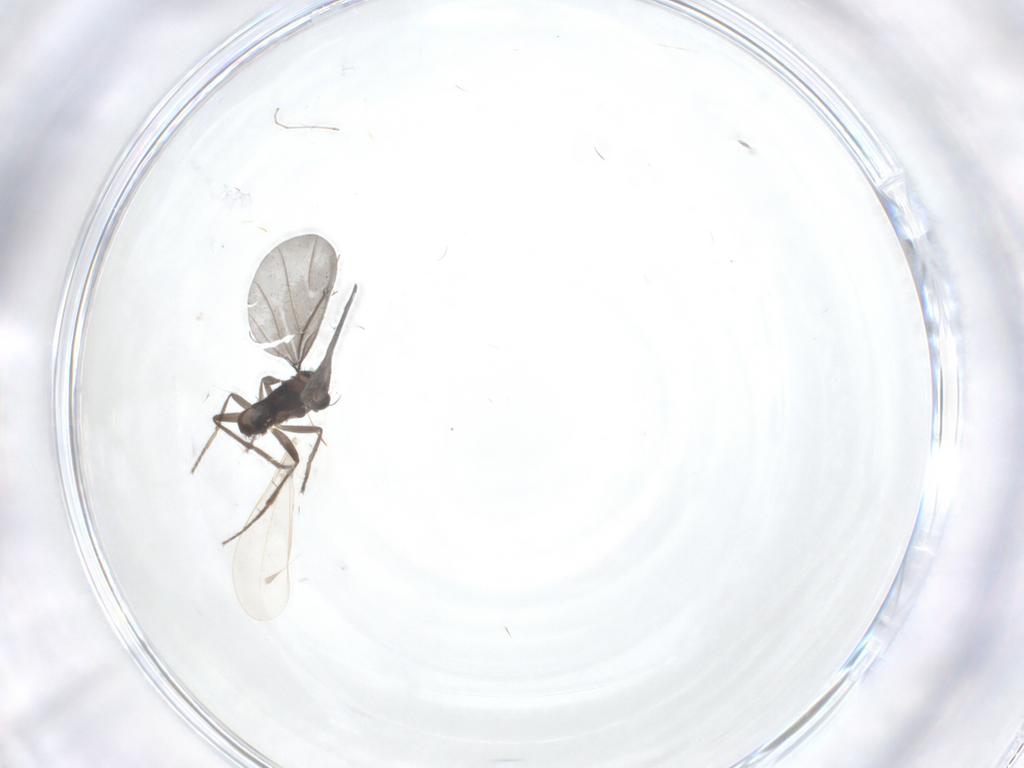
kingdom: Animalia
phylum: Arthropoda
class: Insecta
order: Diptera
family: Phoridae
